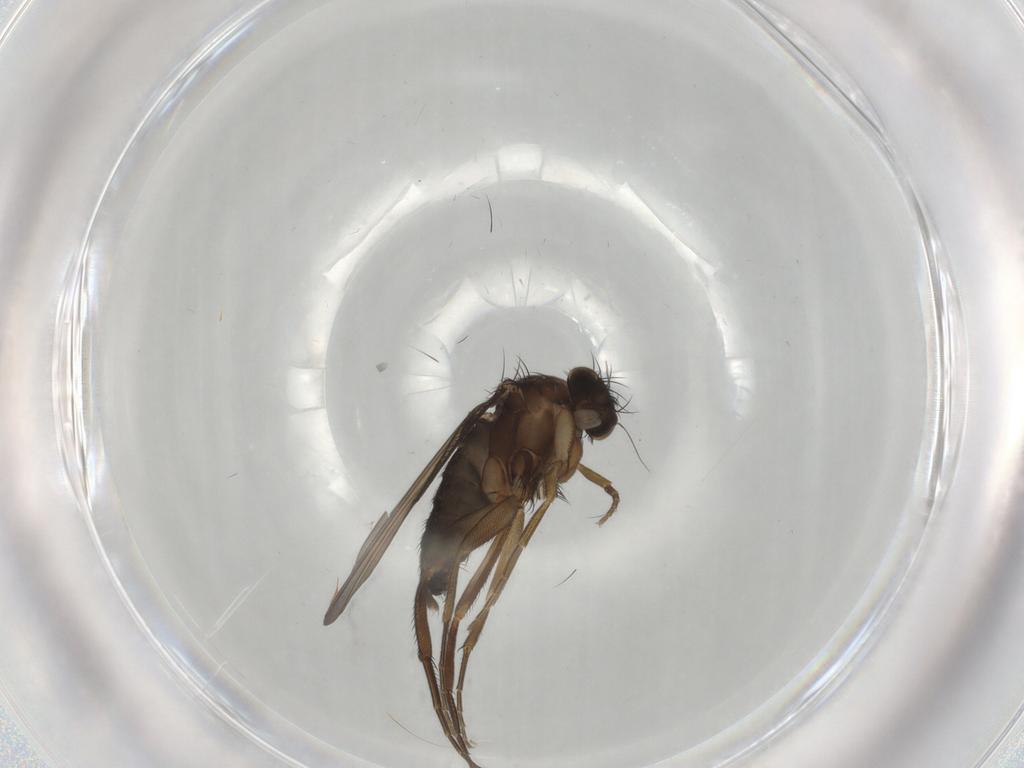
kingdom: Animalia
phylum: Arthropoda
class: Insecta
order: Diptera
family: Phoridae
